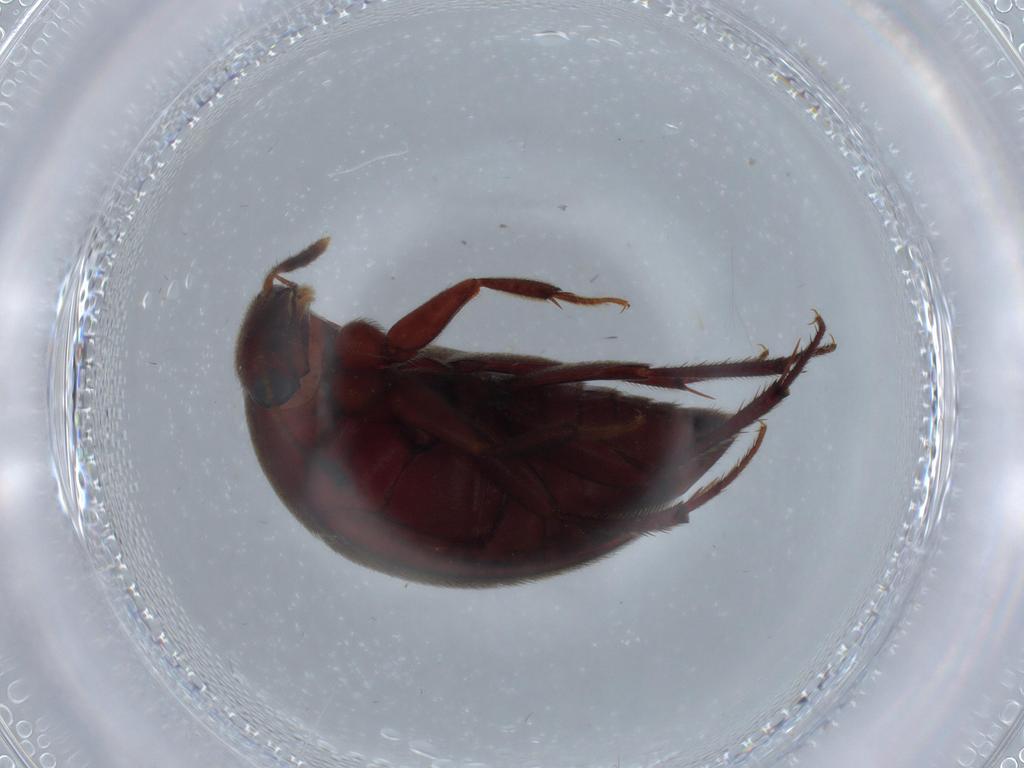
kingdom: Animalia
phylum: Arthropoda
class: Insecta
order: Coleoptera
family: Leiodidae
